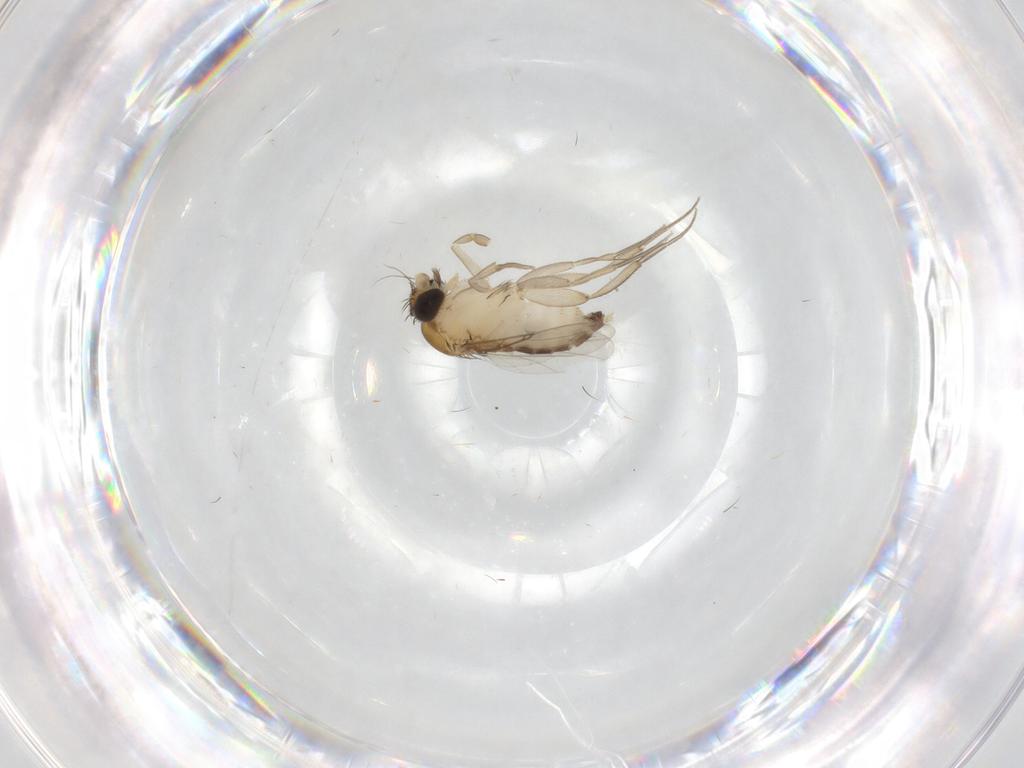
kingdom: Animalia
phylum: Arthropoda
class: Insecta
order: Diptera
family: Phoridae
